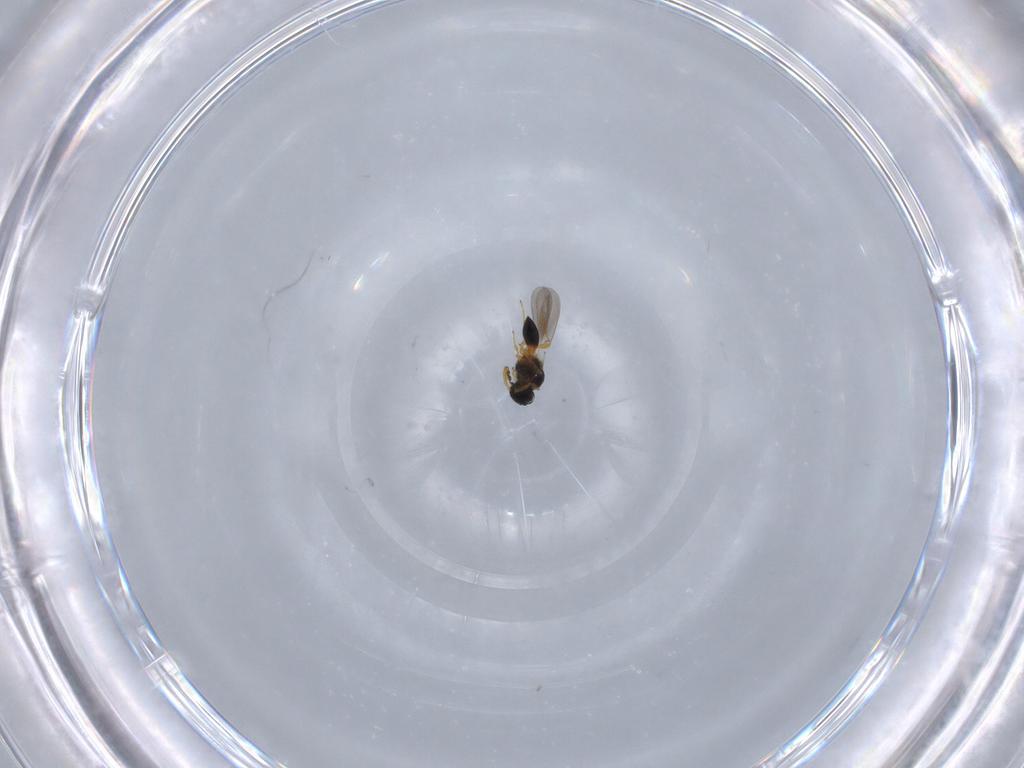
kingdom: Animalia
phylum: Arthropoda
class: Insecta
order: Hymenoptera
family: Platygastridae
